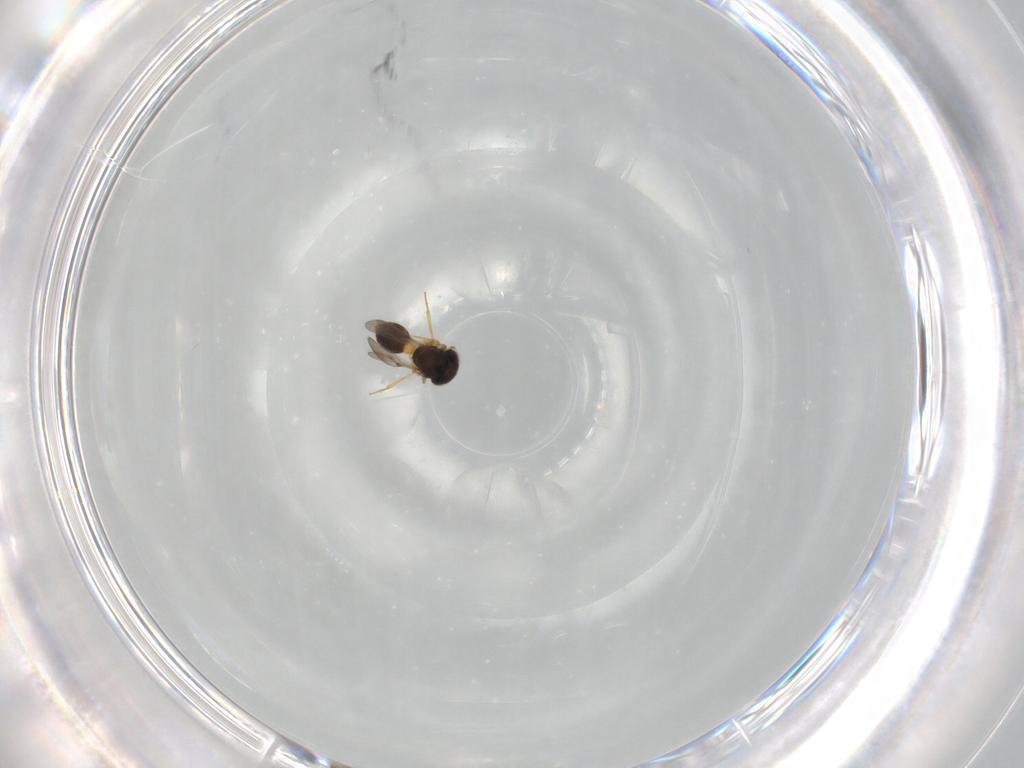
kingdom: Animalia
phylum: Arthropoda
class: Insecta
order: Hymenoptera
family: Scelionidae
